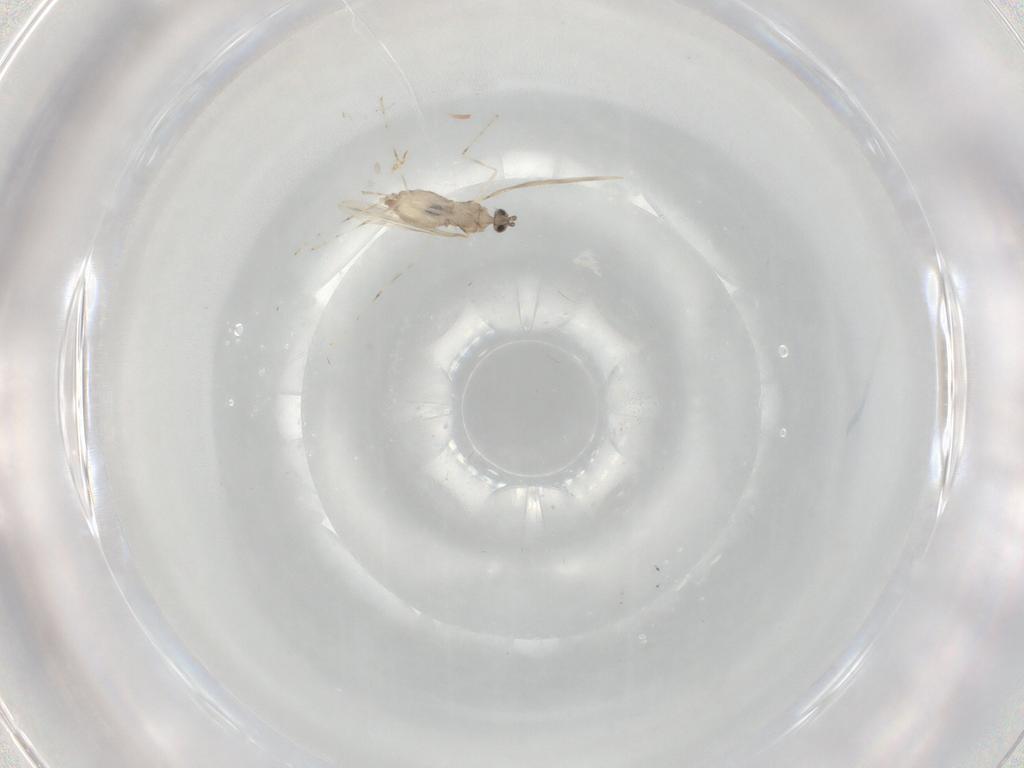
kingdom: Animalia
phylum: Arthropoda
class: Insecta
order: Diptera
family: Cecidomyiidae
